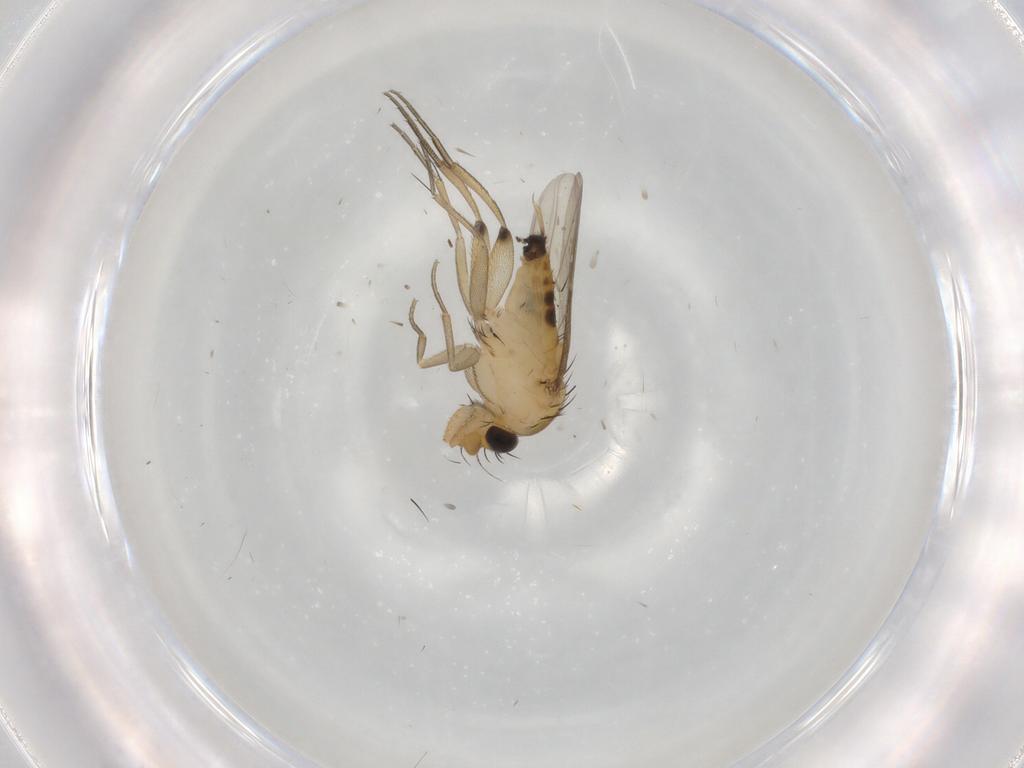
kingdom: Animalia
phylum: Arthropoda
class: Insecta
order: Diptera
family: Phoridae
